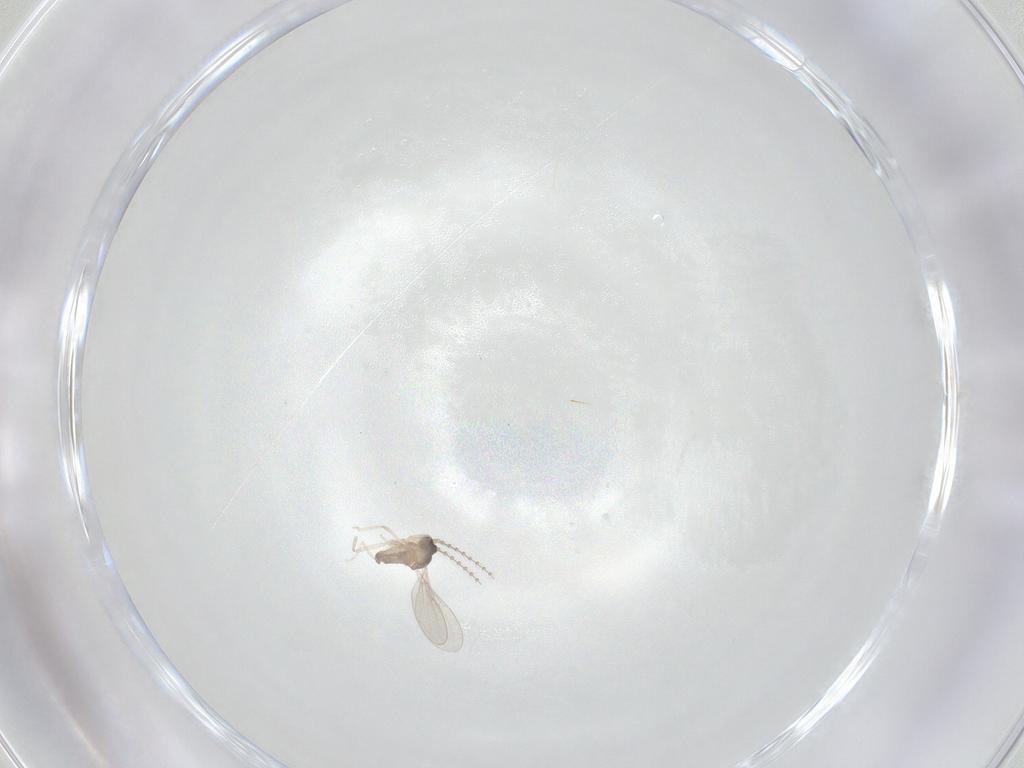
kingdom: Animalia
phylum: Arthropoda
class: Insecta
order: Diptera
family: Cecidomyiidae
